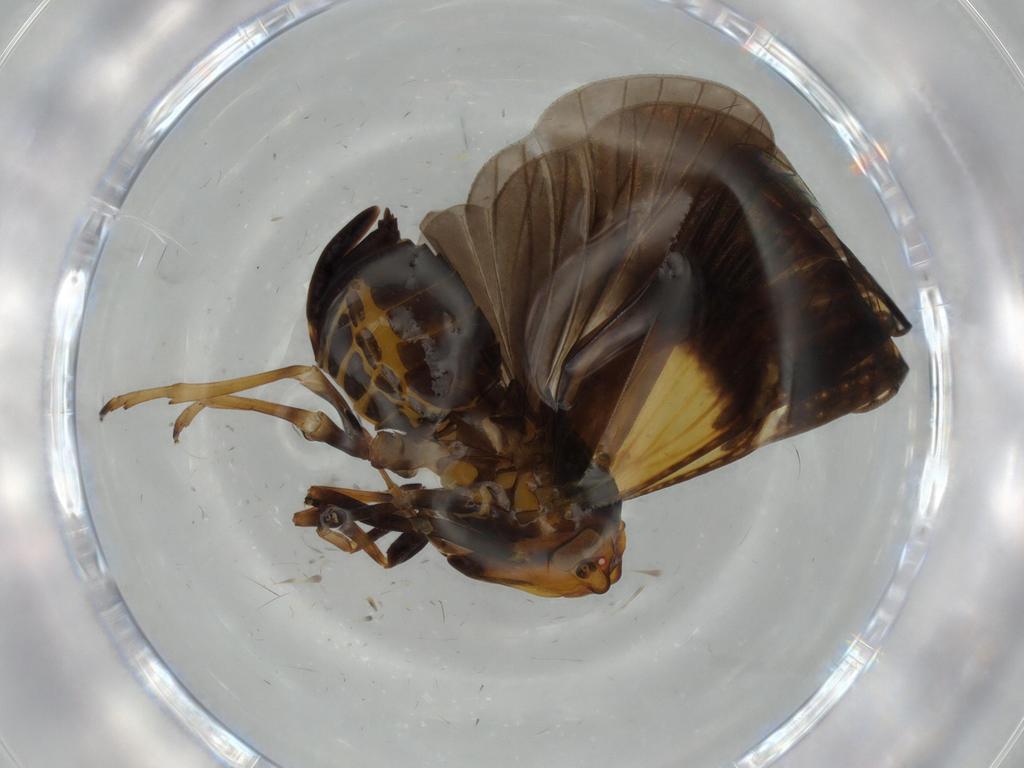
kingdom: Animalia
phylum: Arthropoda
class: Insecta
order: Hemiptera
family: Cixiidae
